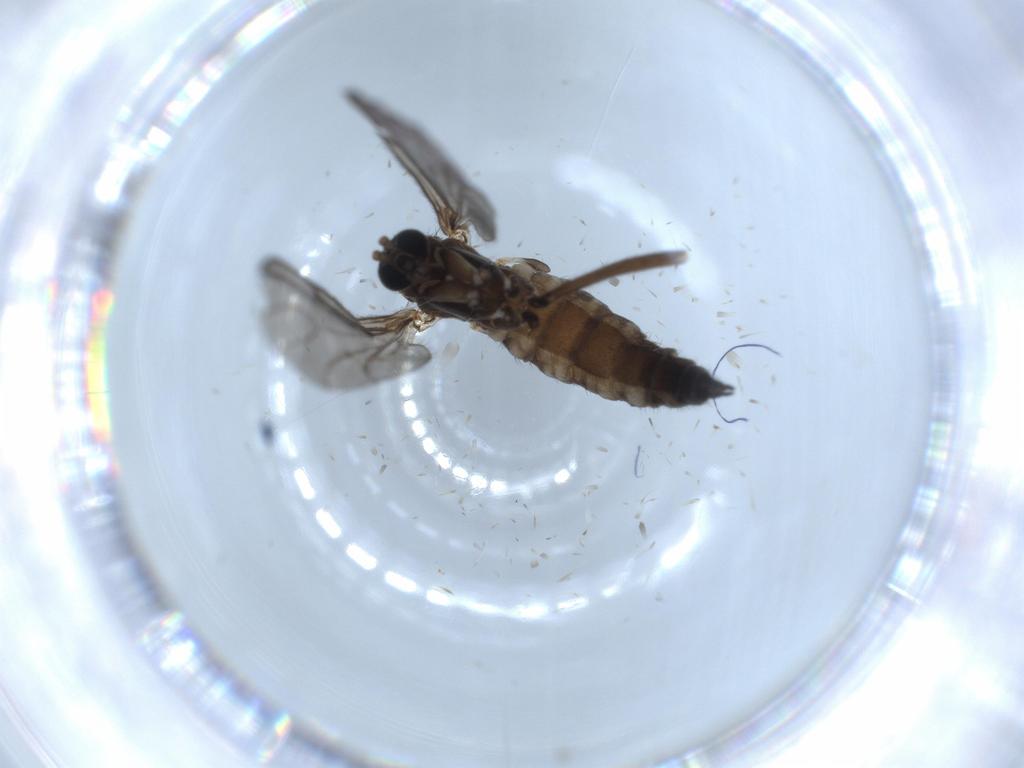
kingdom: Animalia
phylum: Arthropoda
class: Insecta
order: Diptera
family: Sciaridae
